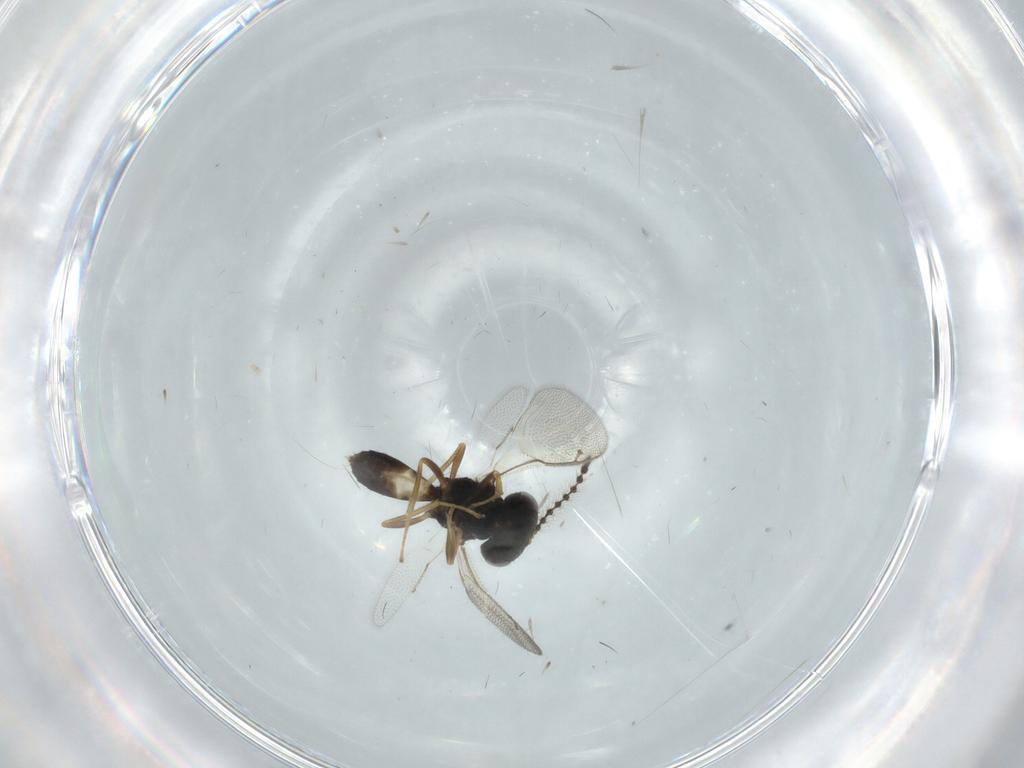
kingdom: Animalia
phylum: Arthropoda
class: Insecta
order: Hymenoptera
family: Pteromalidae
